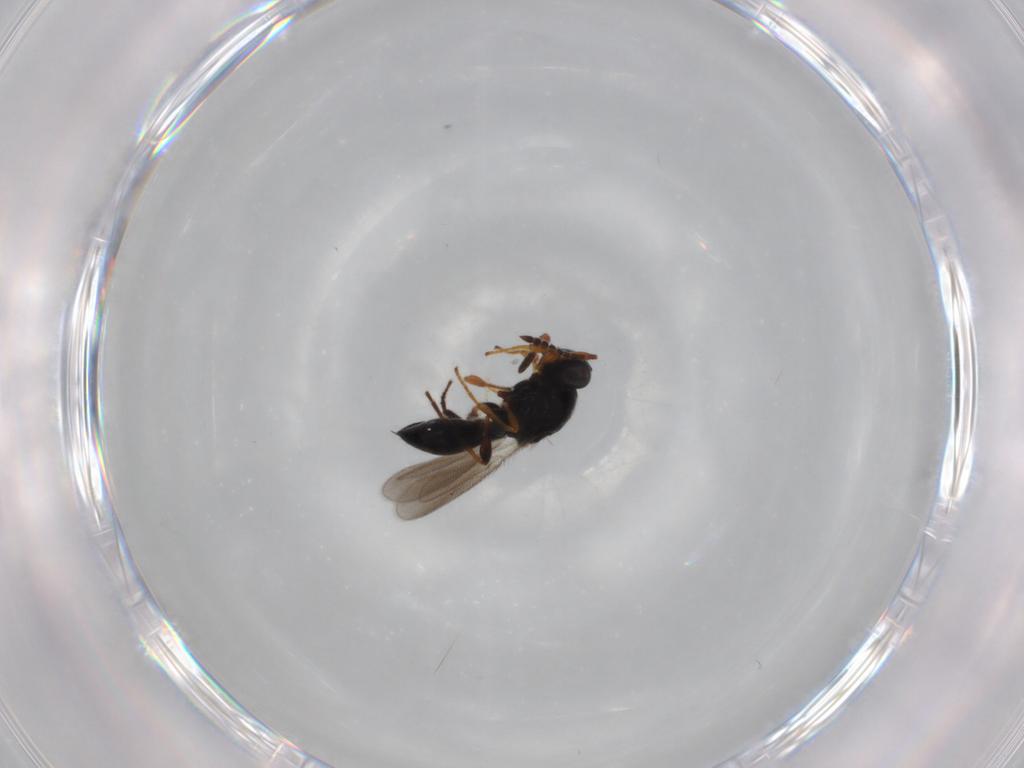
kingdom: Animalia
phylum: Arthropoda
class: Insecta
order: Hymenoptera
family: Platygastridae
